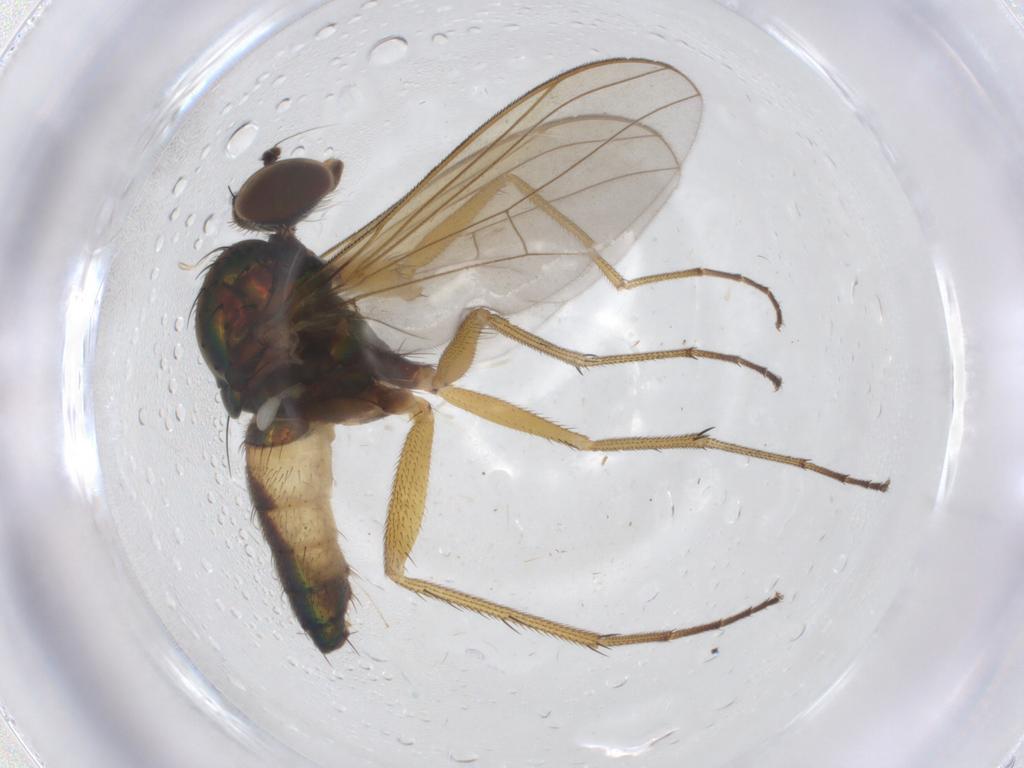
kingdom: Animalia
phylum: Arthropoda
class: Insecta
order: Diptera
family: Dolichopodidae
